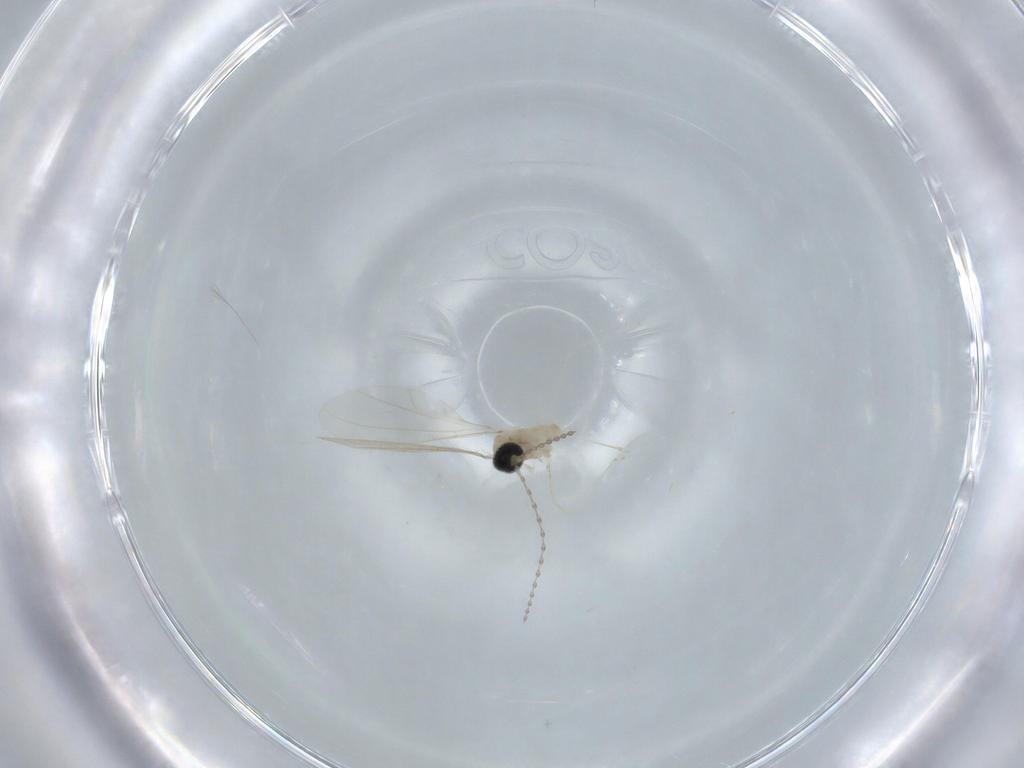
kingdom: Animalia
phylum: Arthropoda
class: Insecta
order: Diptera
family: Cecidomyiidae
